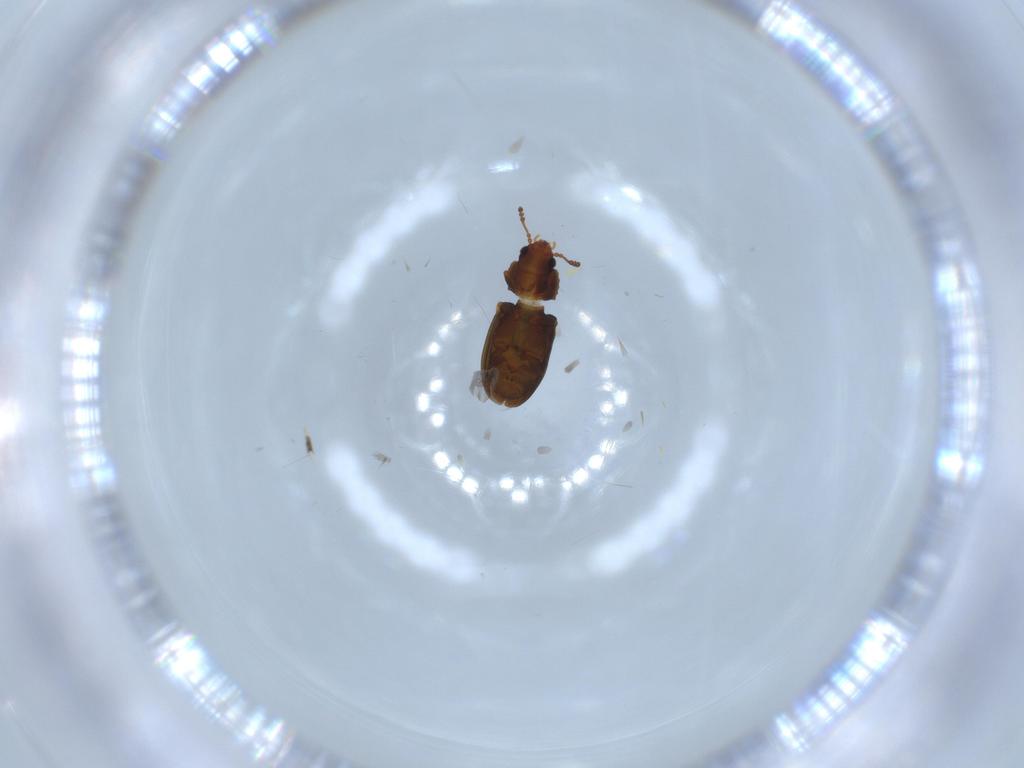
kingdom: Animalia
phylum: Arthropoda
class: Insecta
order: Coleoptera
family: Laemophloeidae
